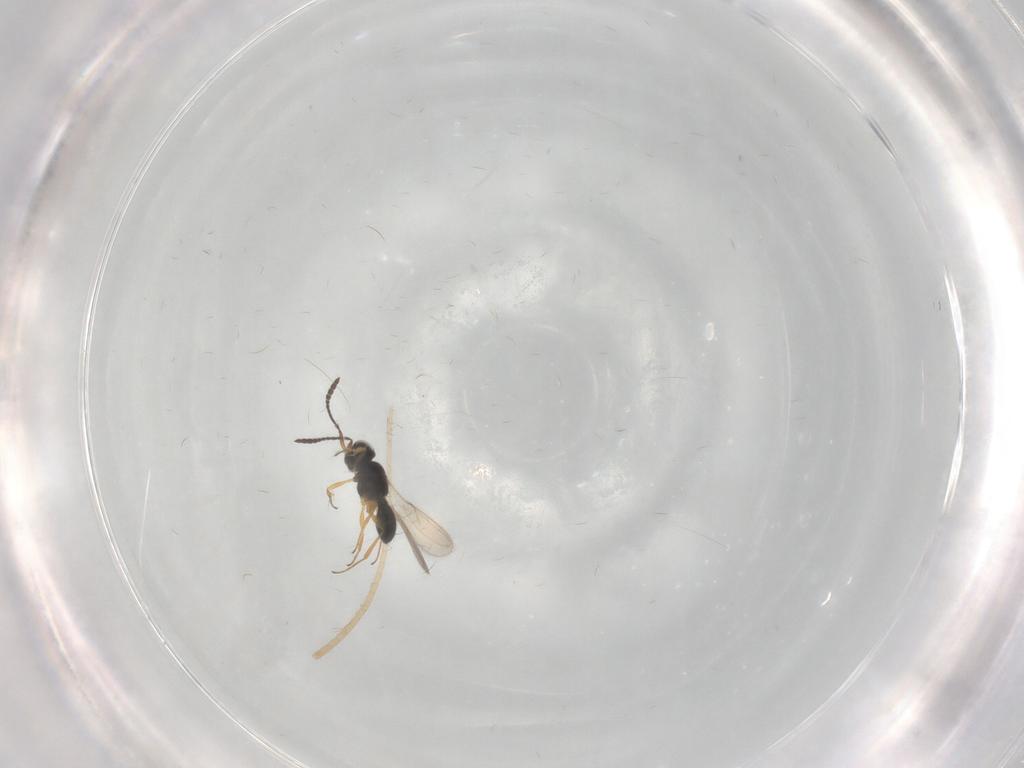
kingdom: Animalia
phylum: Arthropoda
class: Insecta
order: Hymenoptera
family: Scelionidae
